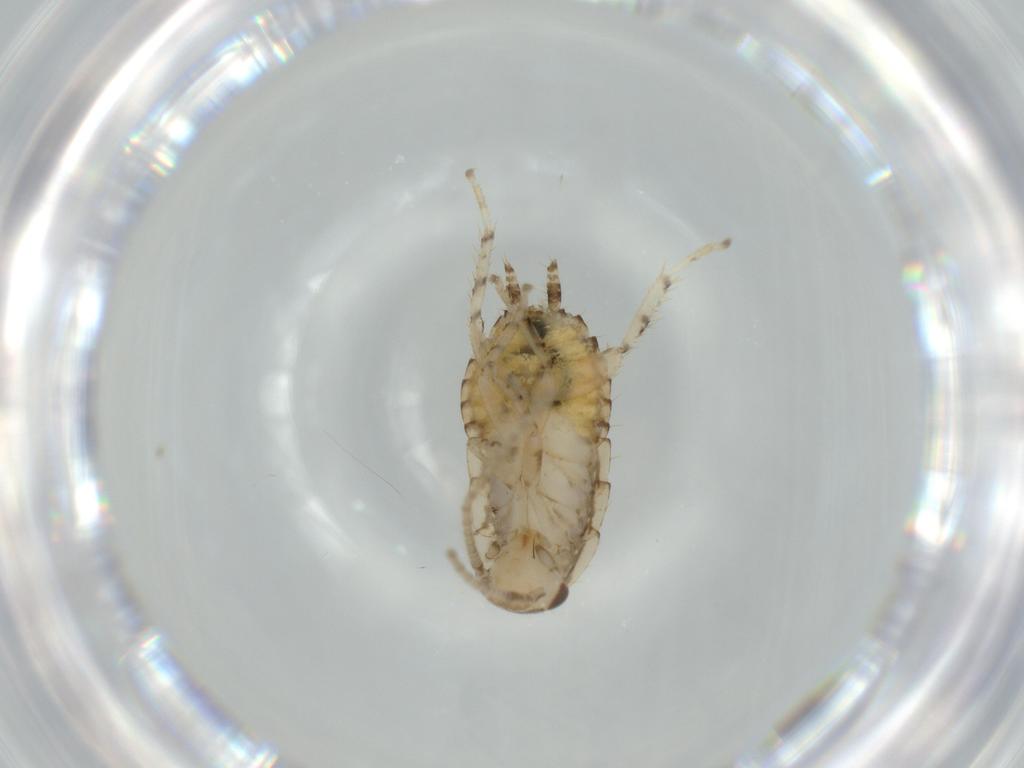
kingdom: Animalia
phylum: Arthropoda
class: Insecta
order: Blattodea
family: Ectobiidae
